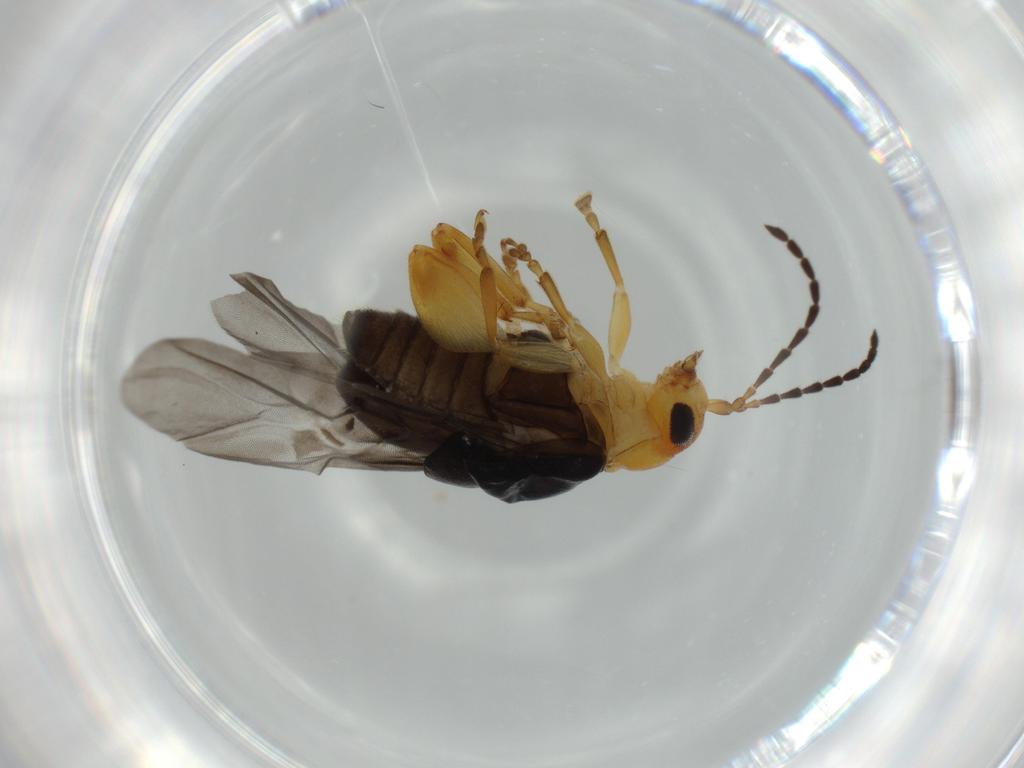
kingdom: Animalia
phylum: Arthropoda
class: Insecta
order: Coleoptera
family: Chrysomelidae
